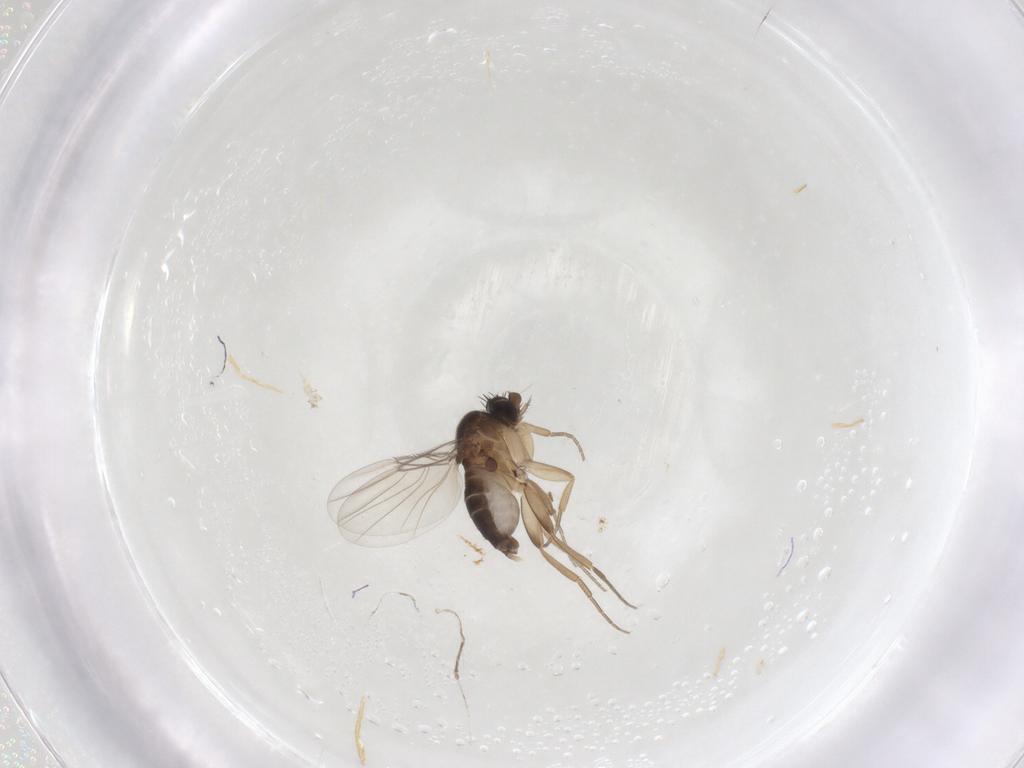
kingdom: Animalia
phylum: Arthropoda
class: Insecta
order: Diptera
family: Phoridae
